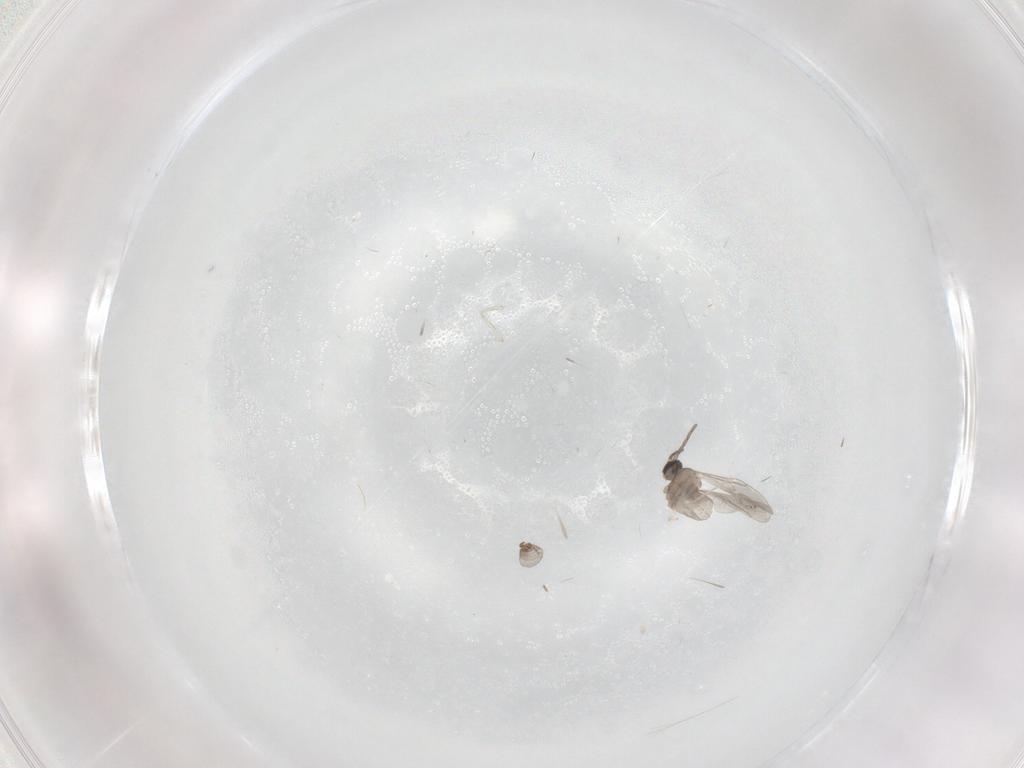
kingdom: Animalia
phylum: Arthropoda
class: Insecta
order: Diptera
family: Cecidomyiidae
